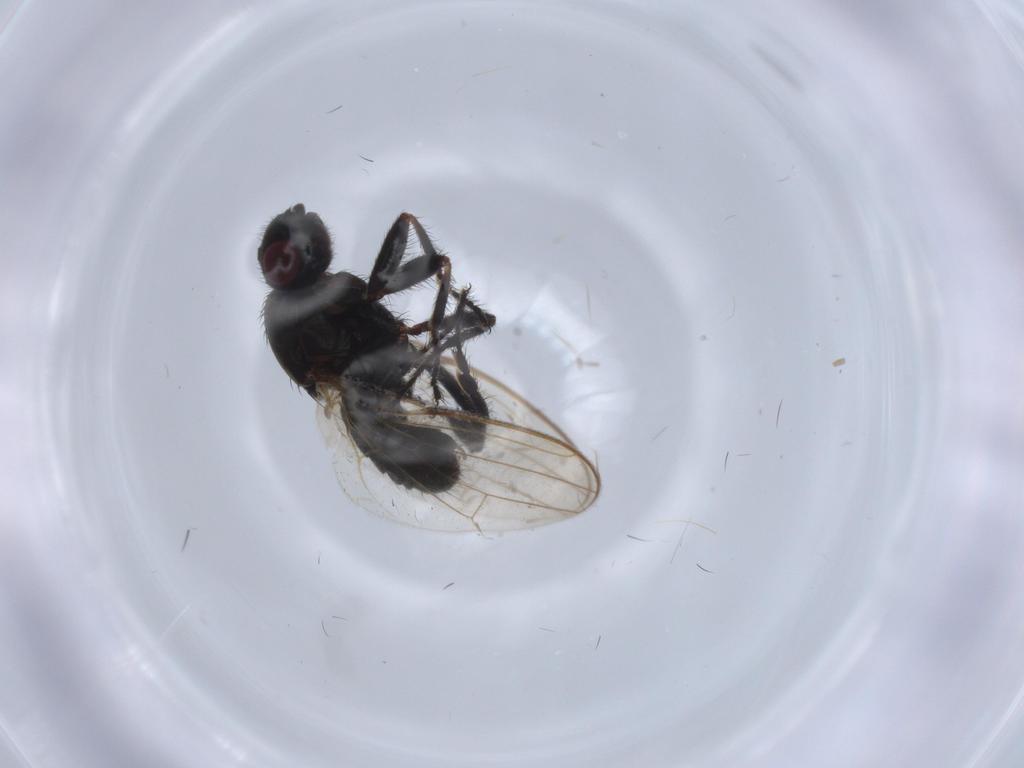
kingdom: Animalia
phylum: Arthropoda
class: Insecta
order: Diptera
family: Sphaeroceridae
